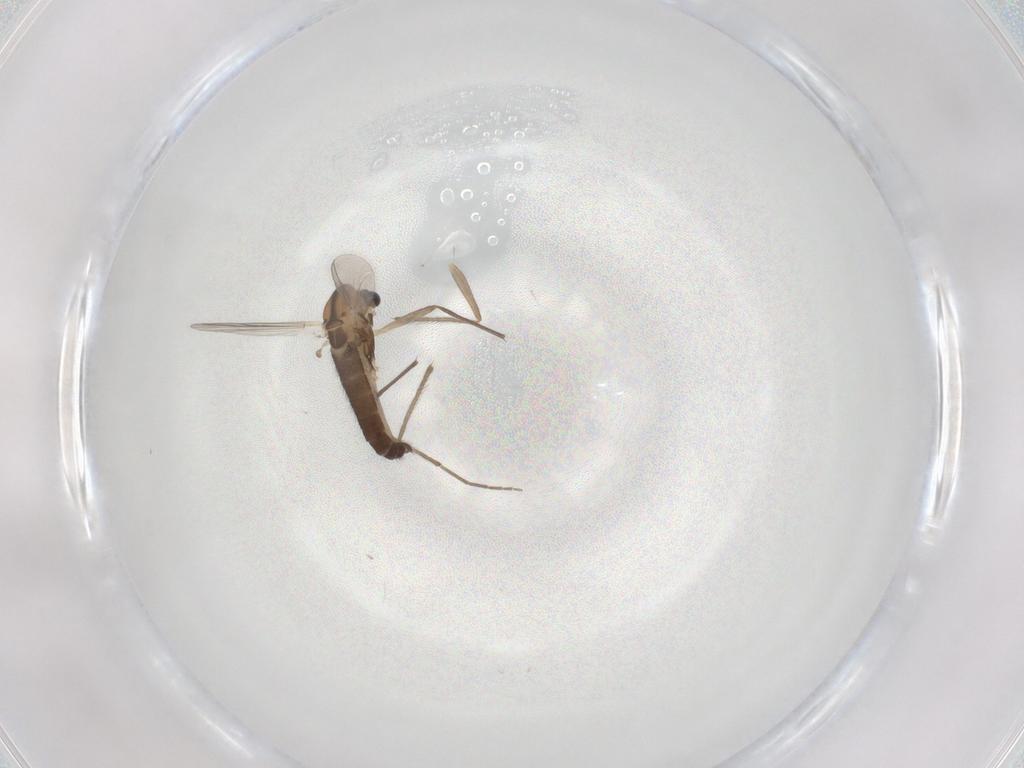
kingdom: Animalia
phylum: Arthropoda
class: Insecta
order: Diptera
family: Chironomidae
